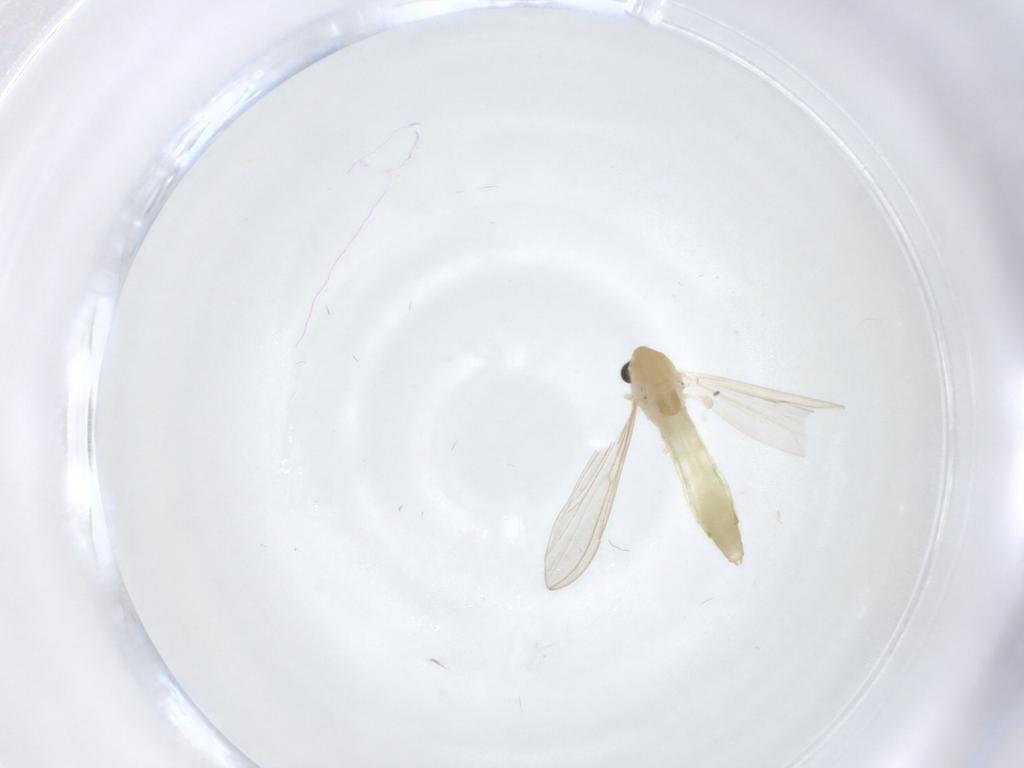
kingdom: Animalia
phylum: Arthropoda
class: Insecta
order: Diptera
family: Chironomidae
